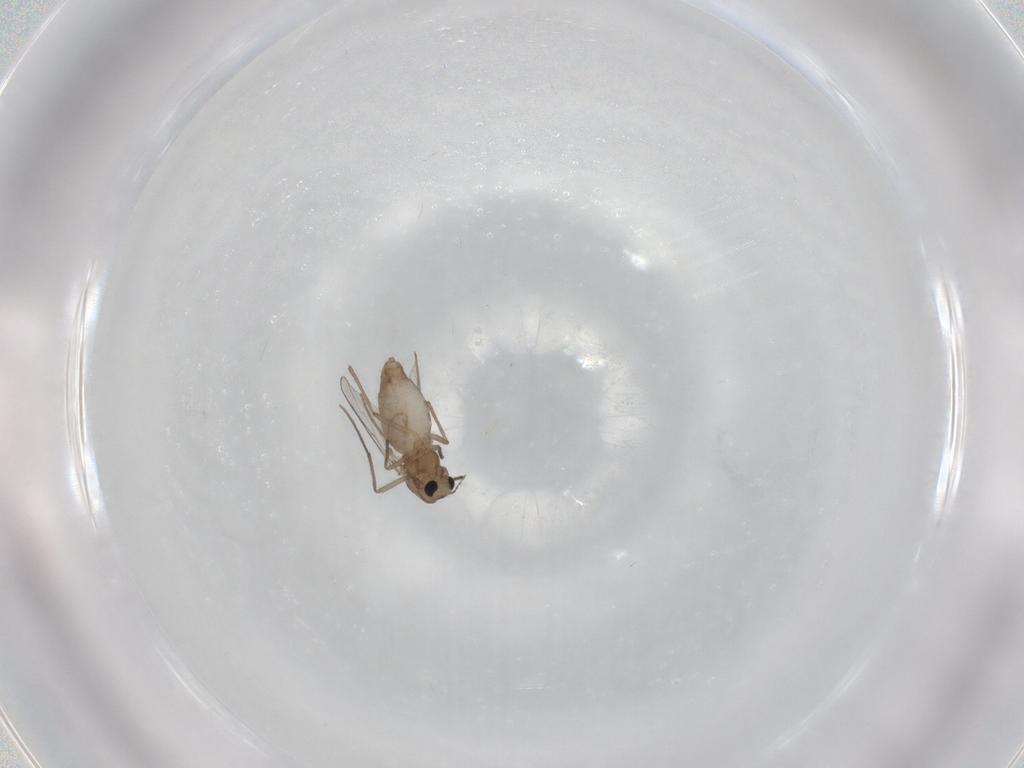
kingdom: Animalia
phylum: Arthropoda
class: Insecta
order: Diptera
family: Chironomidae
